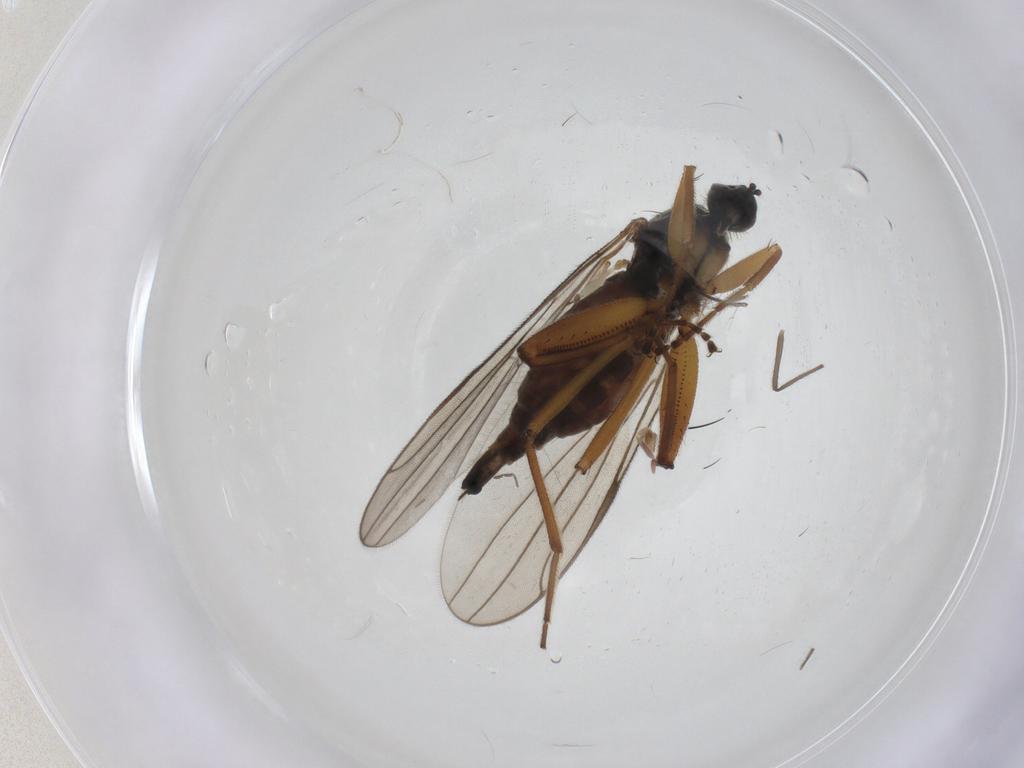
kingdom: Animalia
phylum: Arthropoda
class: Insecta
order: Diptera
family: Hybotidae
